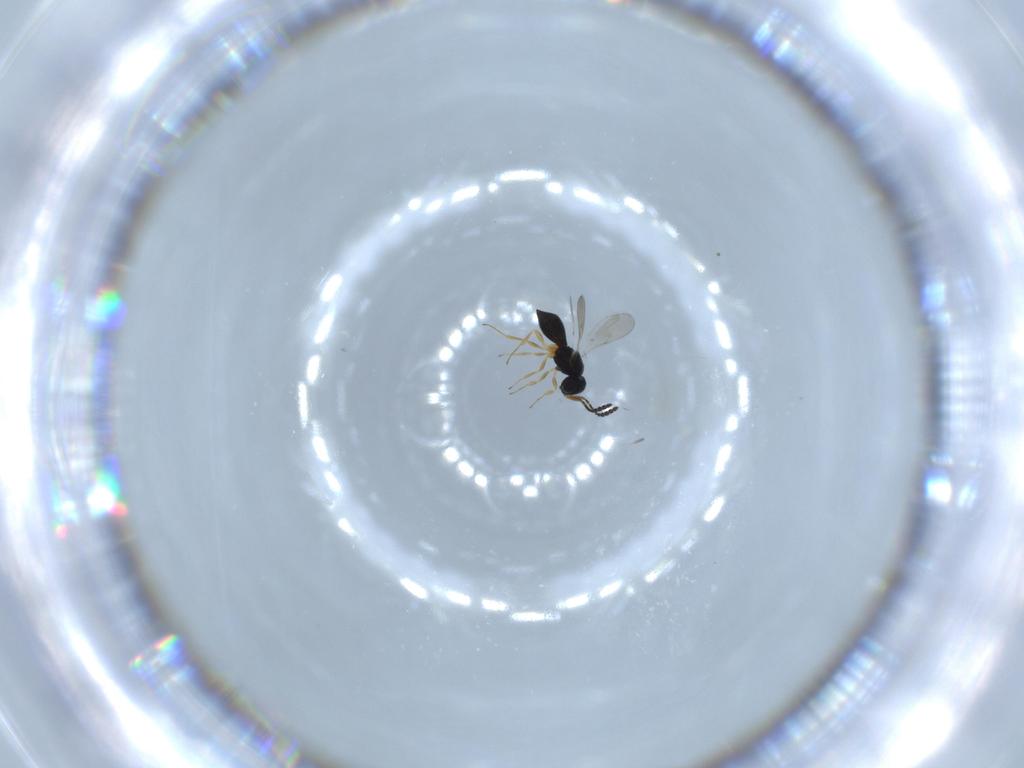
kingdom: Animalia
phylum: Arthropoda
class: Insecta
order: Hymenoptera
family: Scelionidae
